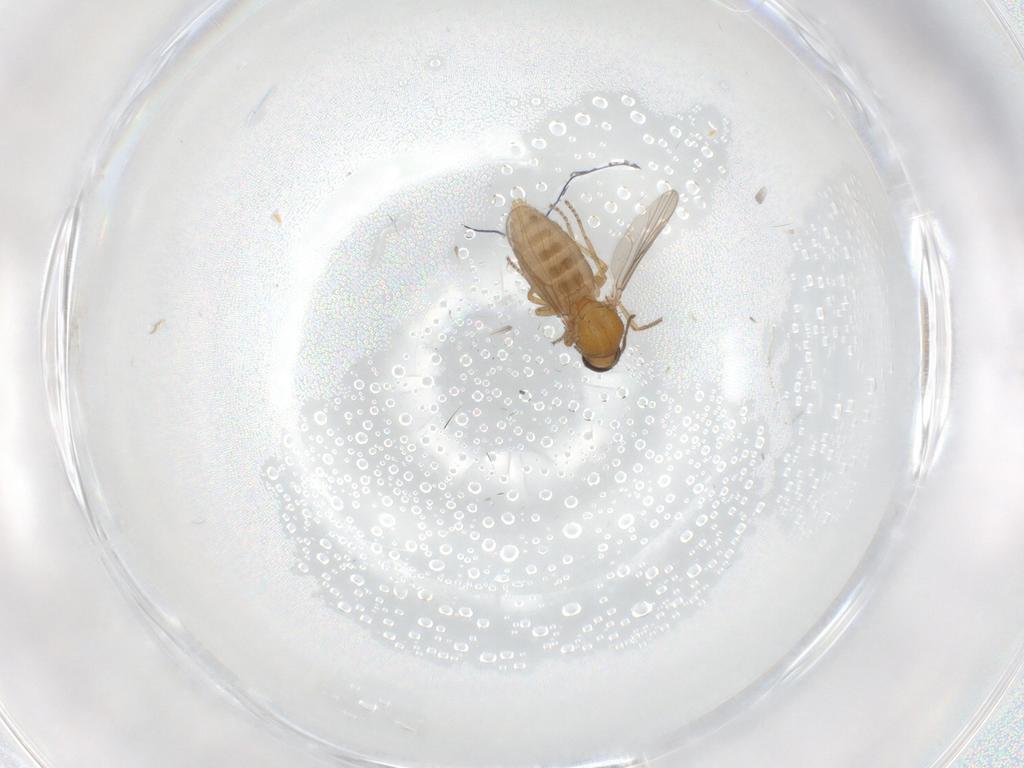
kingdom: Animalia
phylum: Arthropoda
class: Insecta
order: Diptera
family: Ceratopogonidae
